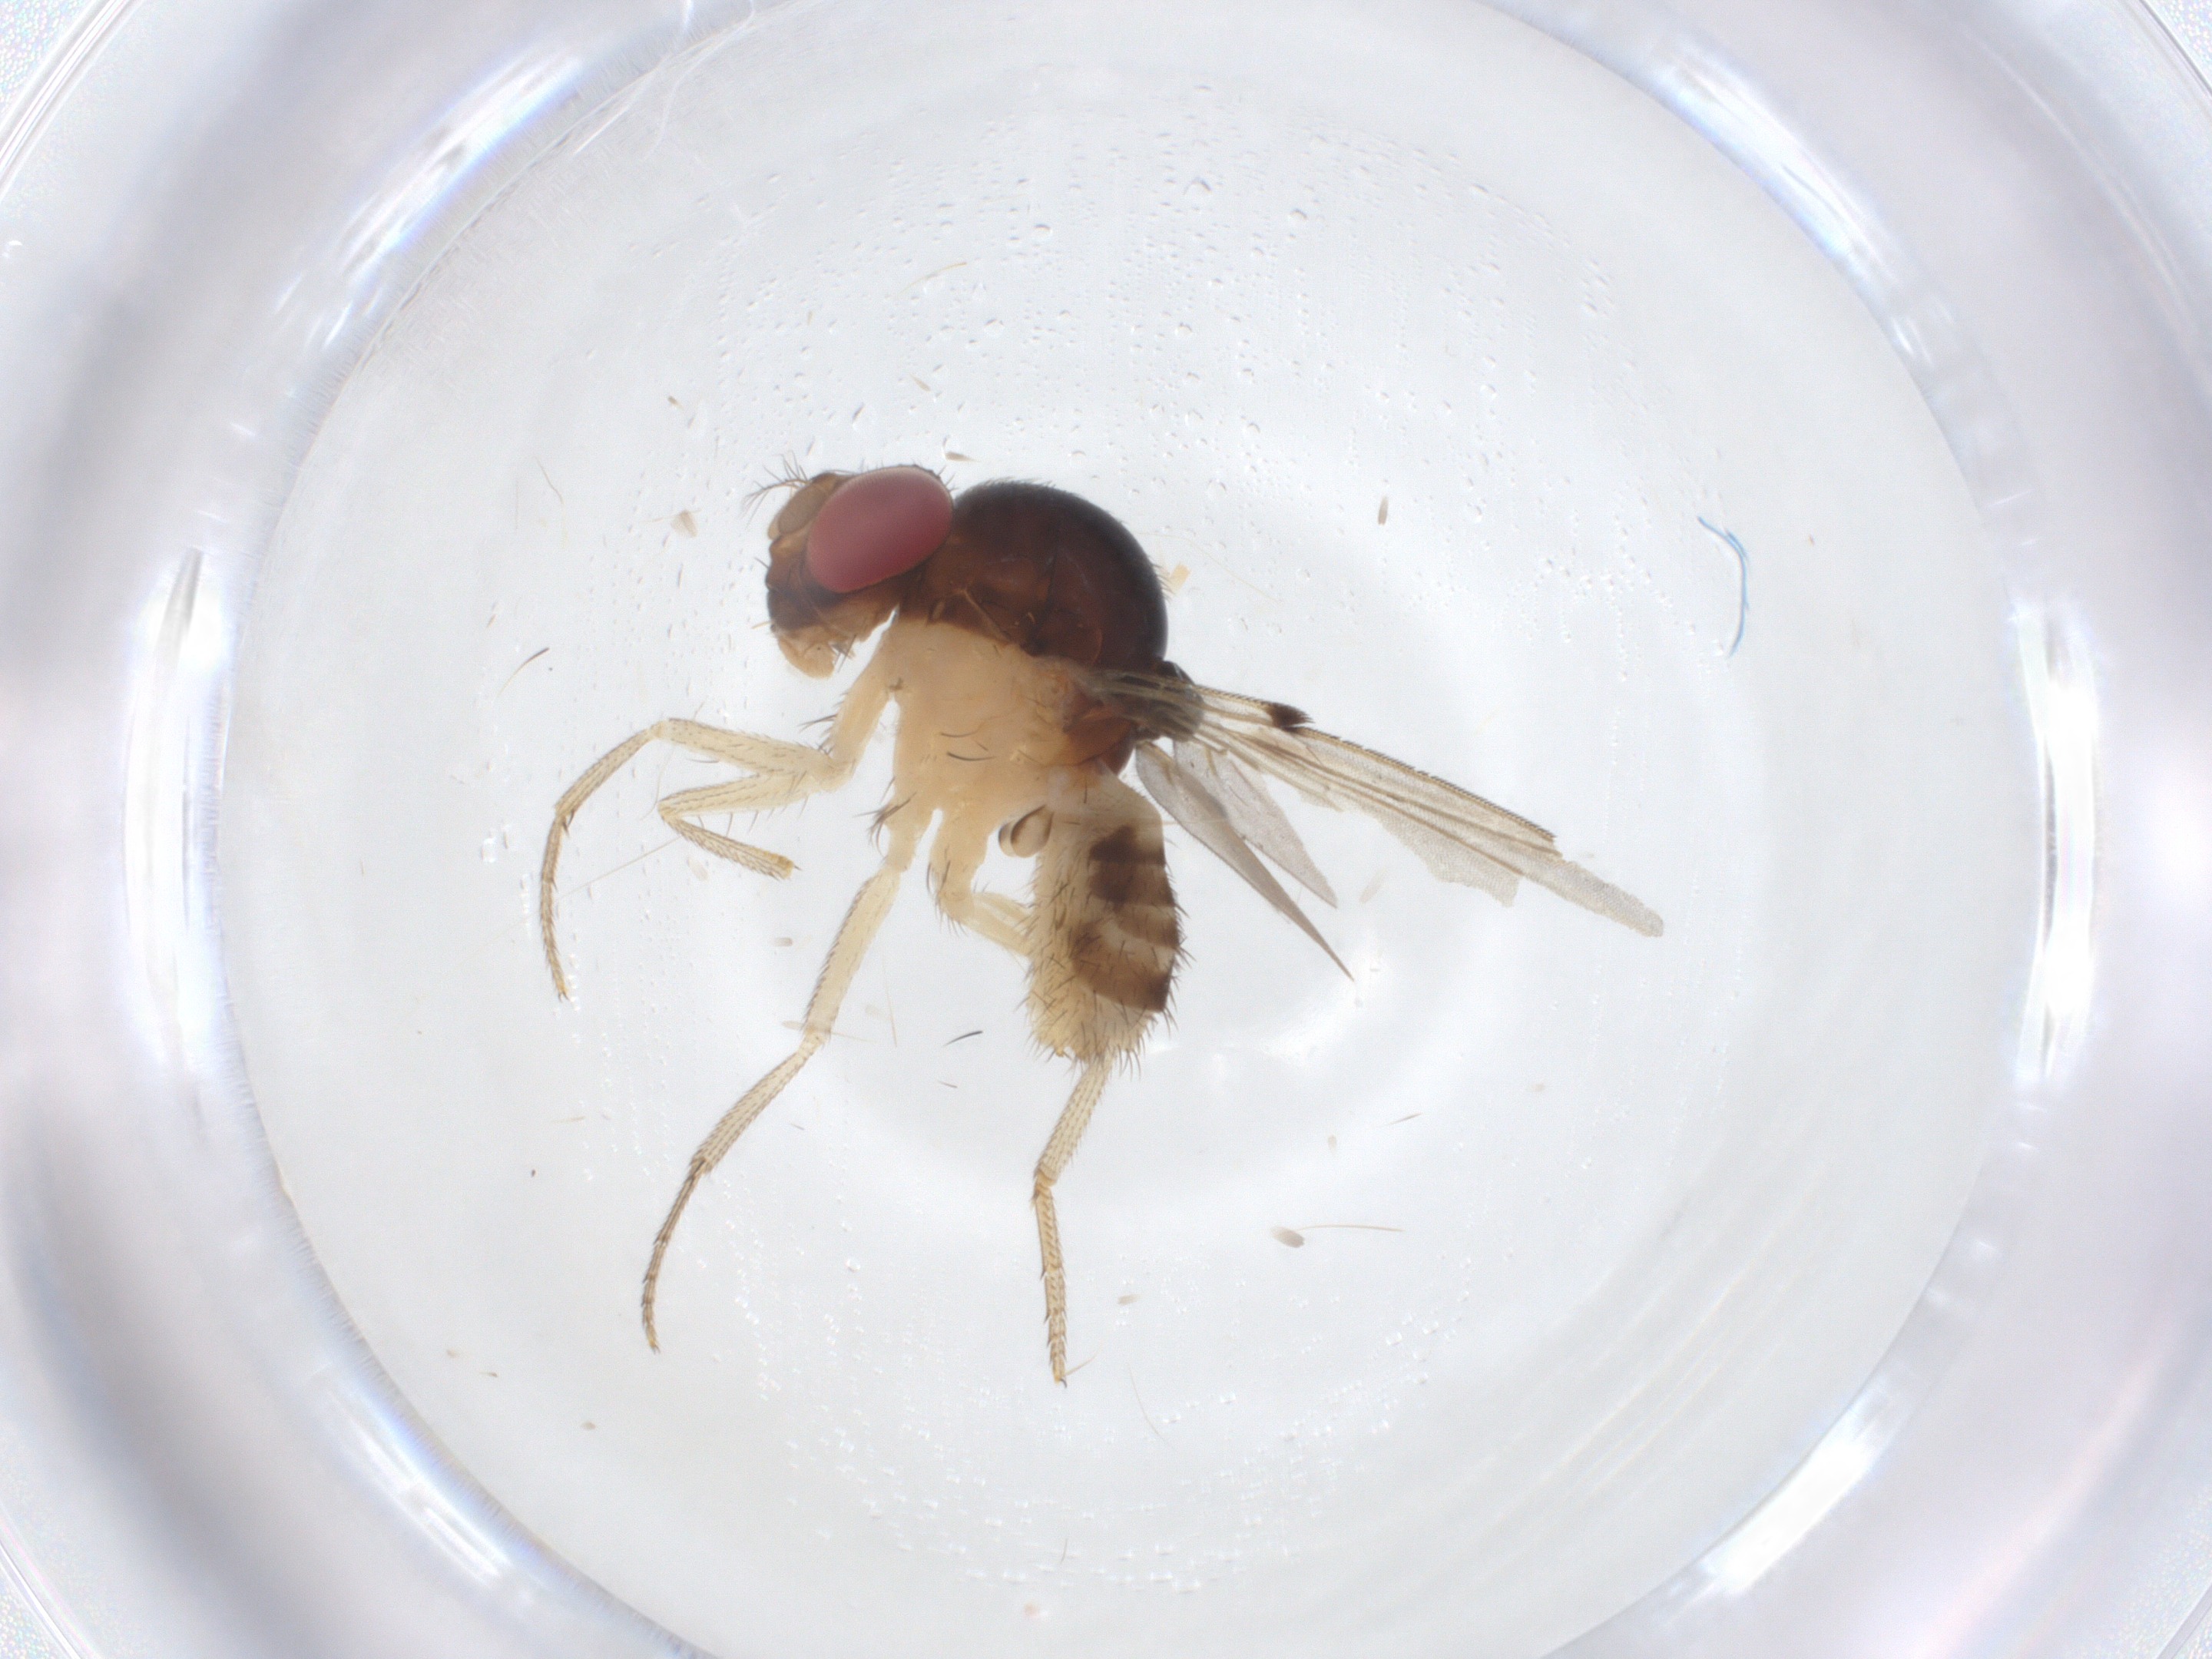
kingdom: Animalia
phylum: Arthropoda
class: Insecta
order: Diptera
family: Drosophilidae
